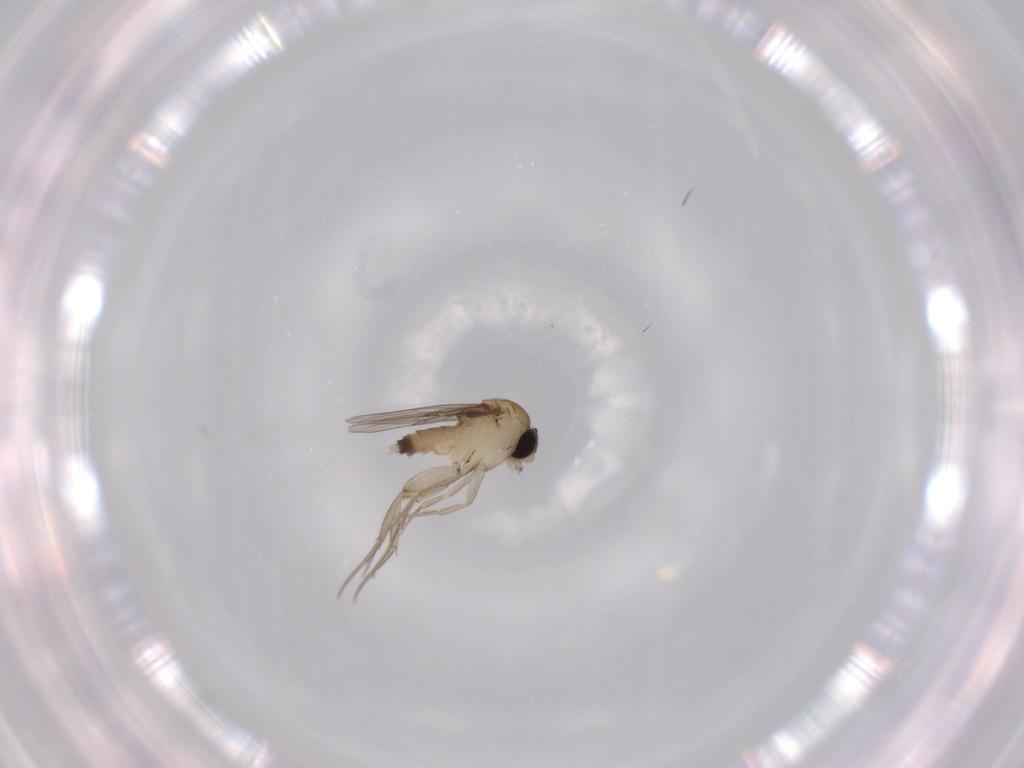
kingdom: Animalia
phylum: Arthropoda
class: Insecta
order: Diptera
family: Phoridae
